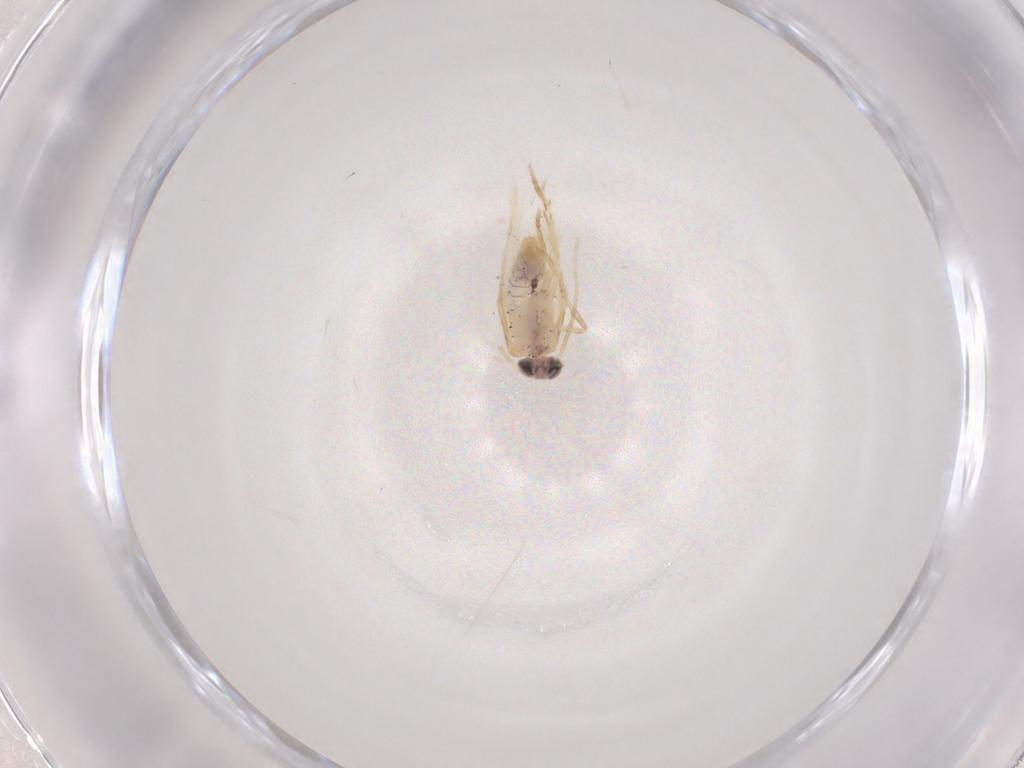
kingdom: Animalia
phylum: Arthropoda
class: Insecta
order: Lepidoptera
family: Nepticulidae
